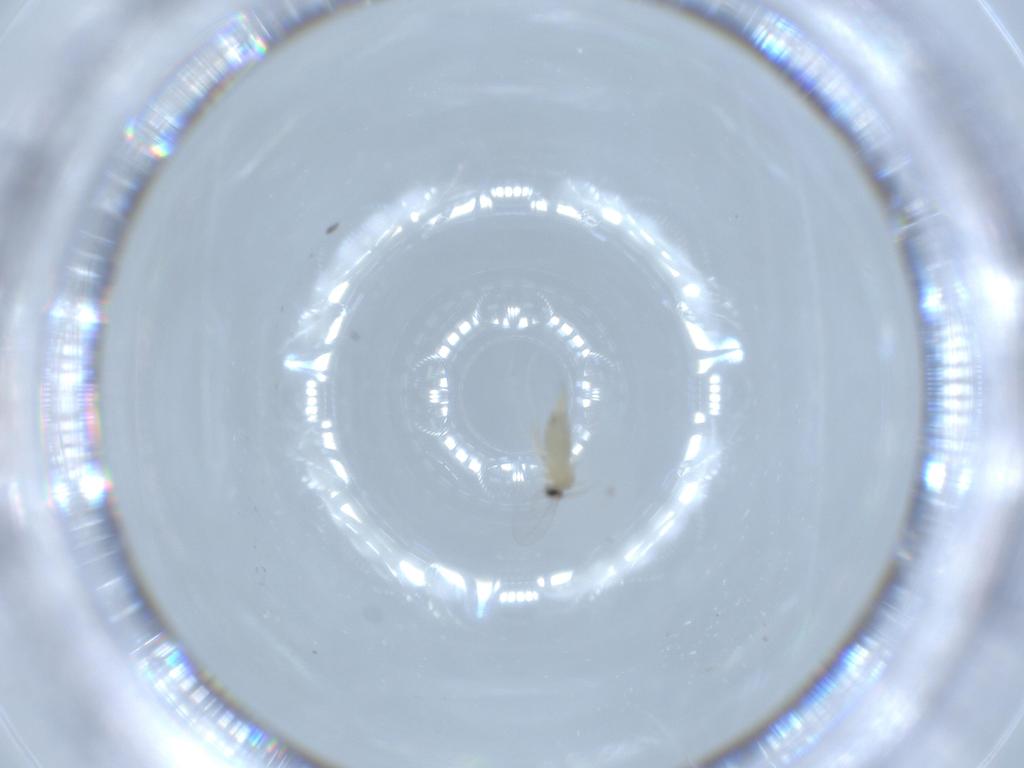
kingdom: Animalia
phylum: Arthropoda
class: Insecta
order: Diptera
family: Cecidomyiidae
